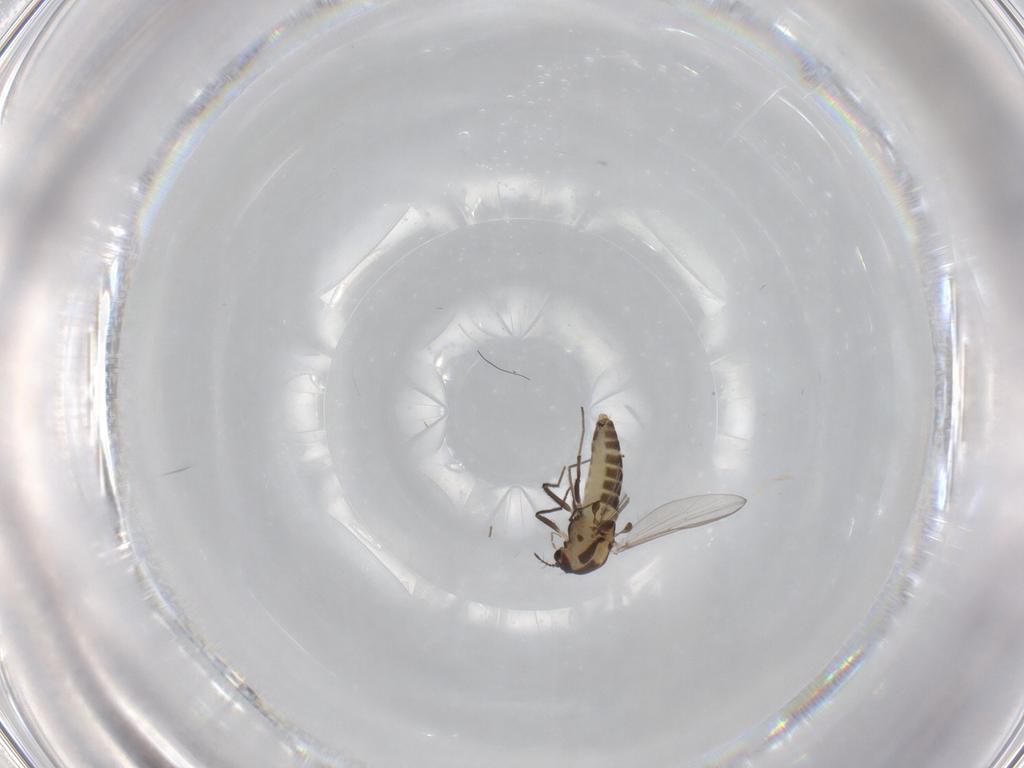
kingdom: Animalia
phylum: Arthropoda
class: Insecta
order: Diptera
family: Chironomidae
